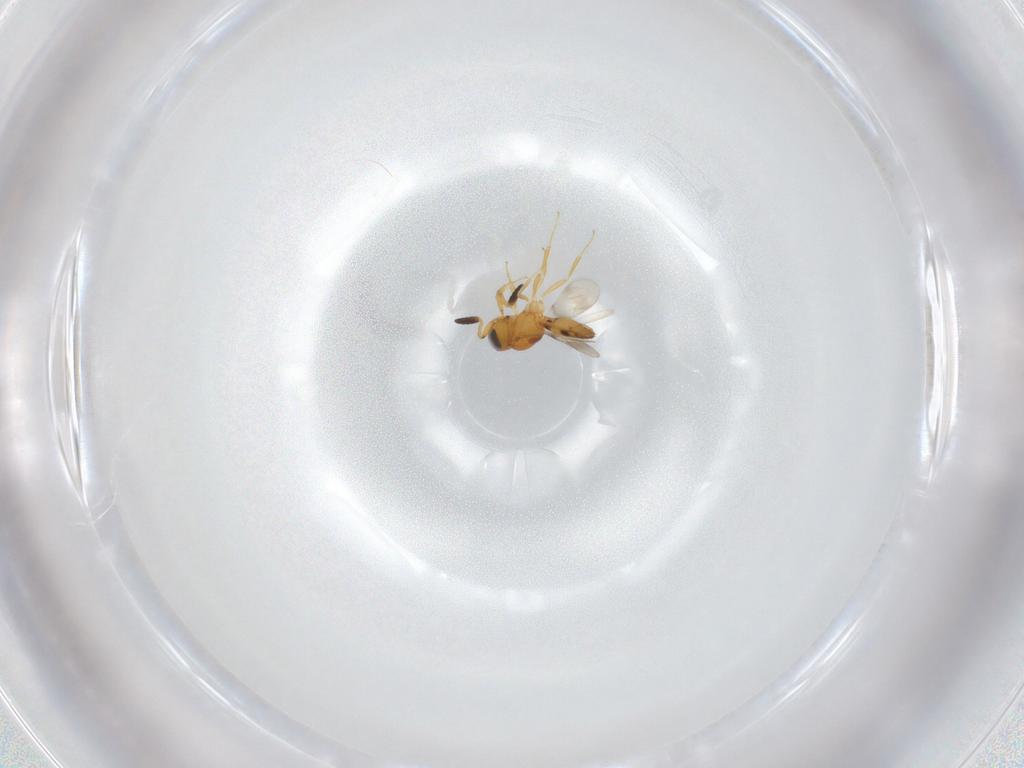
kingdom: Animalia
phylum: Arthropoda
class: Insecta
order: Hymenoptera
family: Scelionidae
